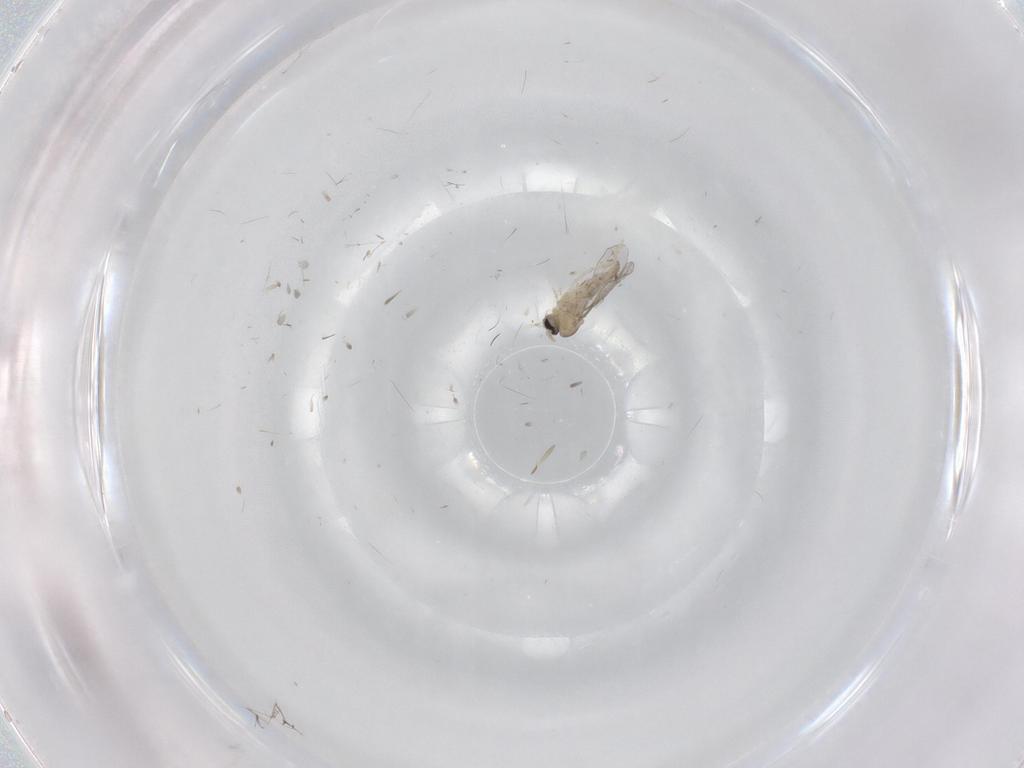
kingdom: Animalia
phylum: Arthropoda
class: Insecta
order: Diptera
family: Cecidomyiidae
